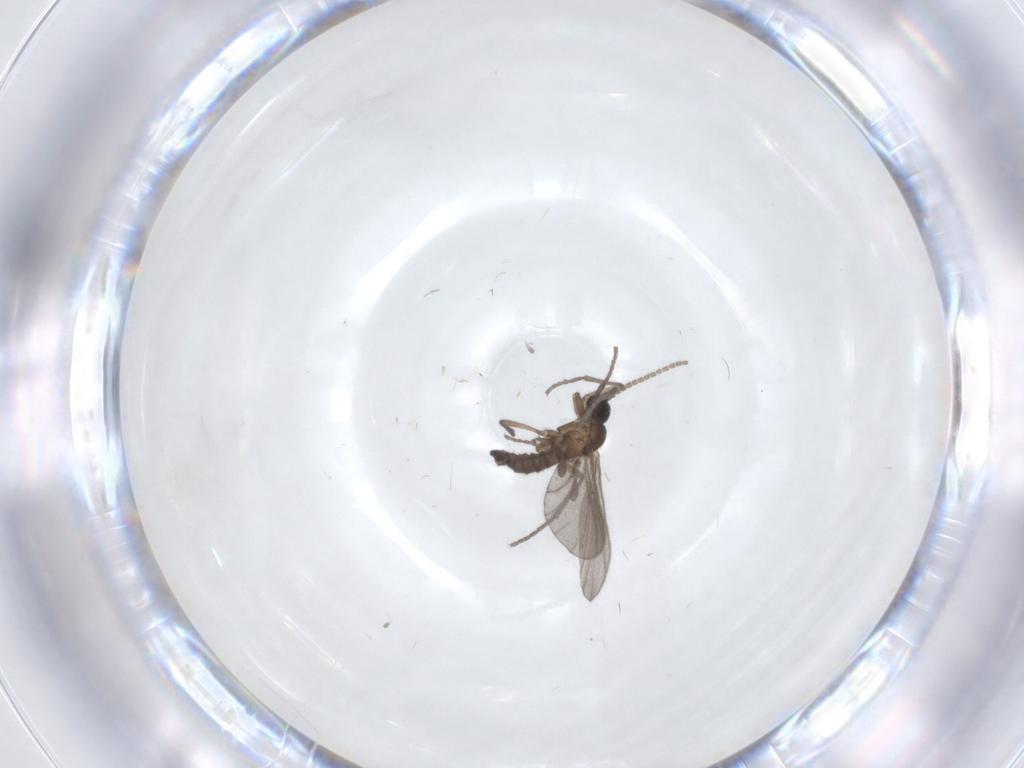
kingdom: Animalia
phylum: Arthropoda
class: Insecta
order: Diptera
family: Sciaridae
